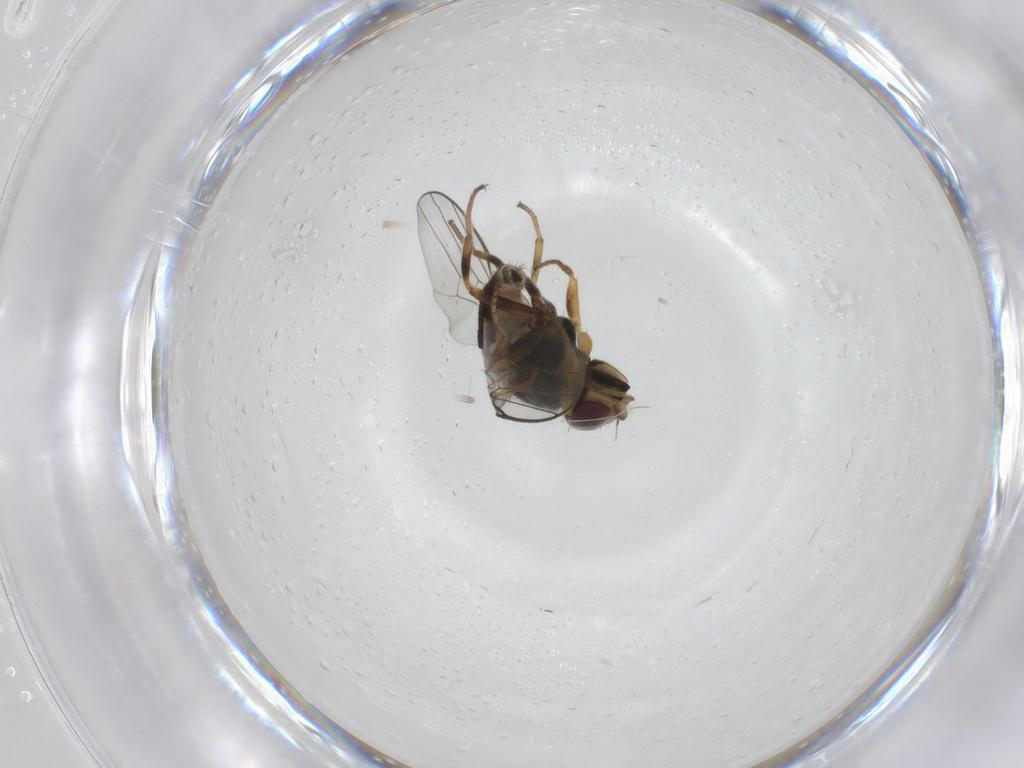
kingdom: Animalia
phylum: Arthropoda
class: Insecta
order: Diptera
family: Chloropidae
